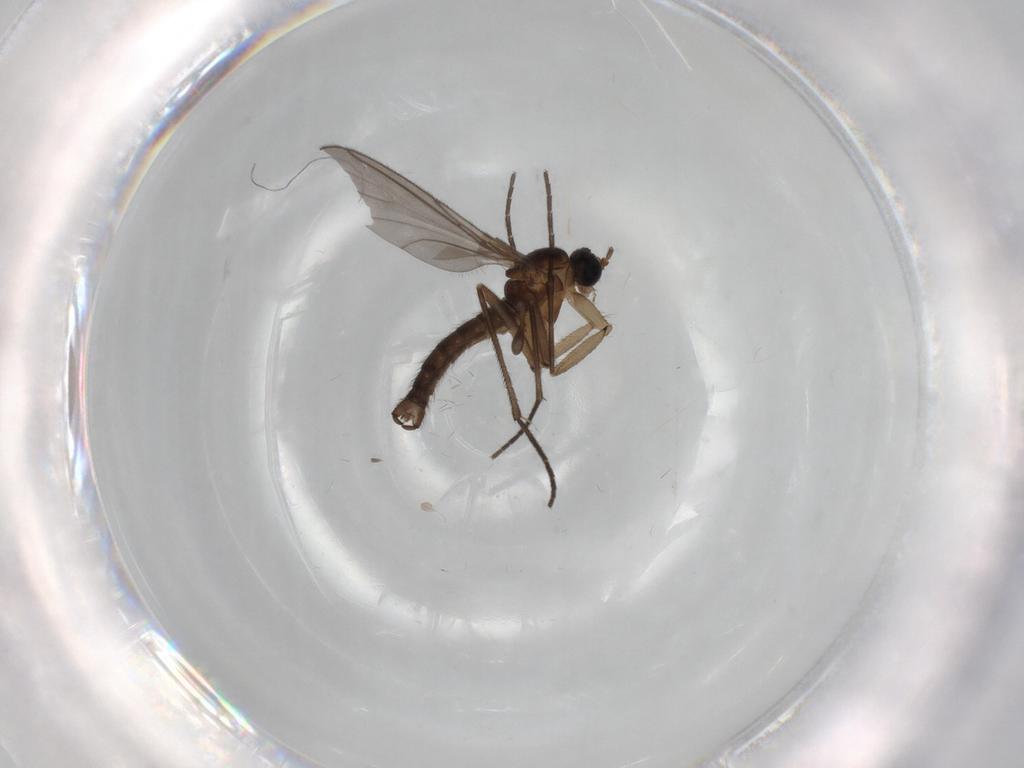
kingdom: Animalia
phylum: Arthropoda
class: Insecta
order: Diptera
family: Sciaridae
